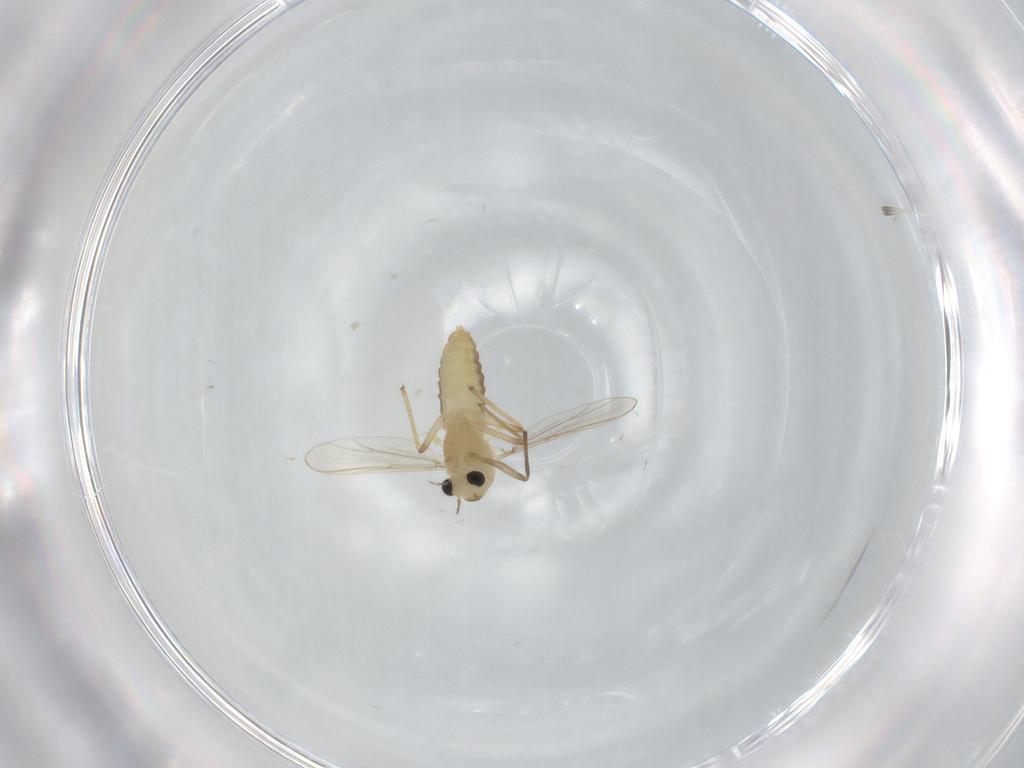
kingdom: Animalia
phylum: Arthropoda
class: Insecta
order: Diptera
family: Chironomidae
